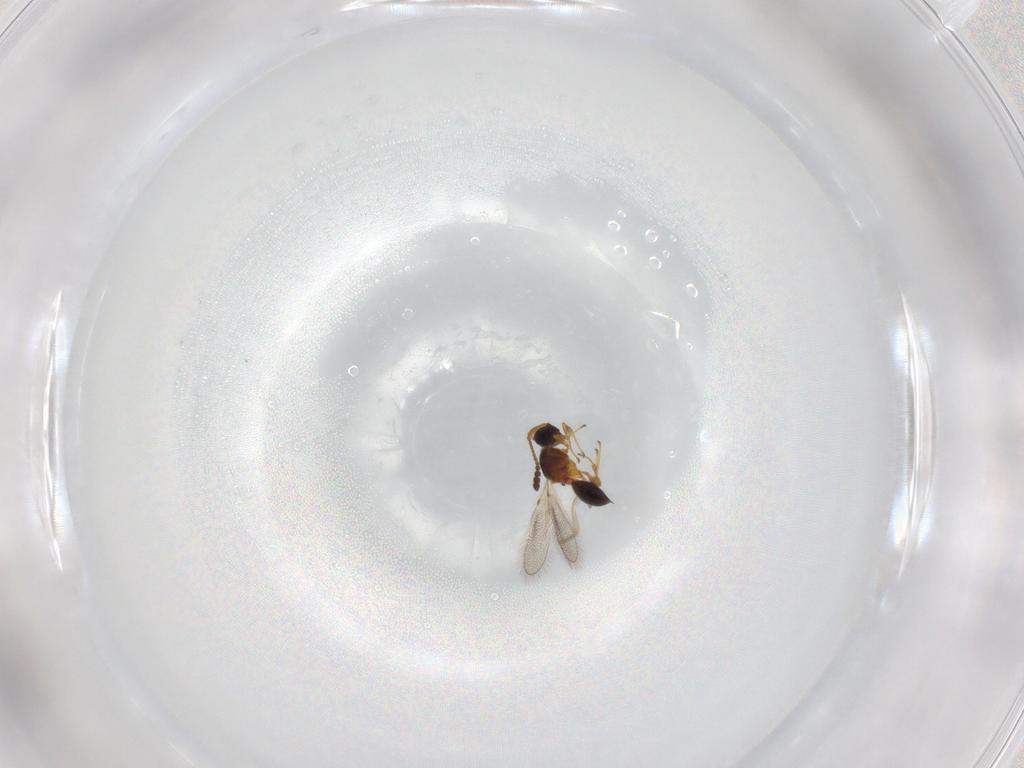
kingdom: Animalia
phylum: Arthropoda
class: Insecta
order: Hymenoptera
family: Diapriidae
